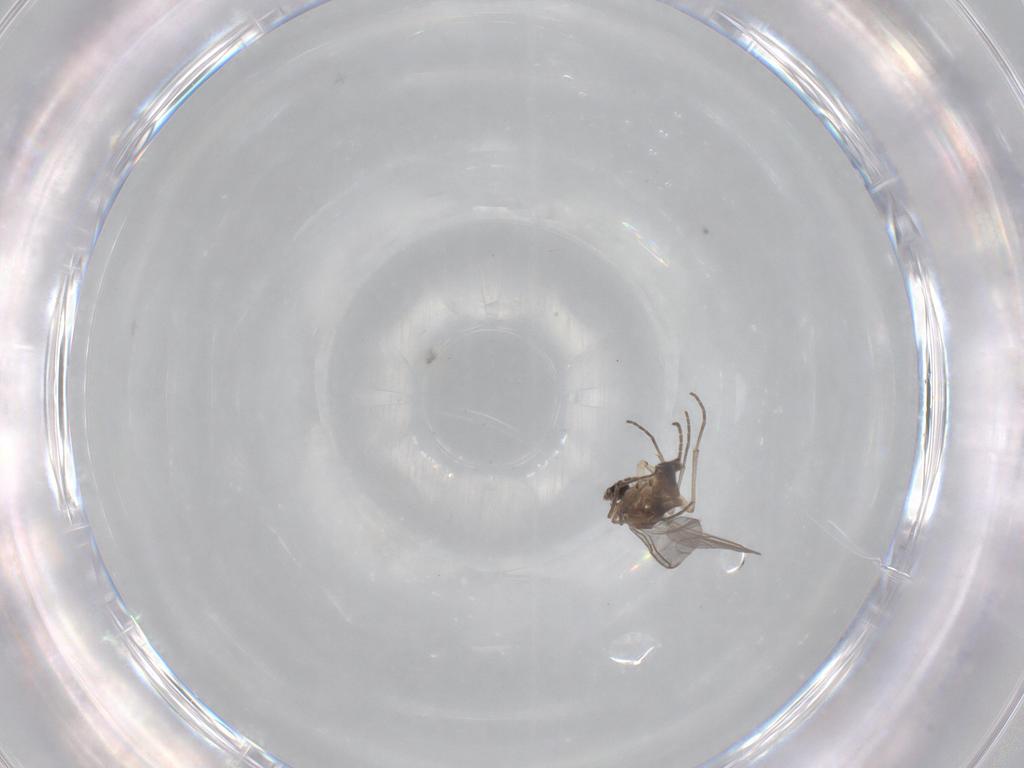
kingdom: Animalia
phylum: Arthropoda
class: Insecta
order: Diptera
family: Sciaridae
